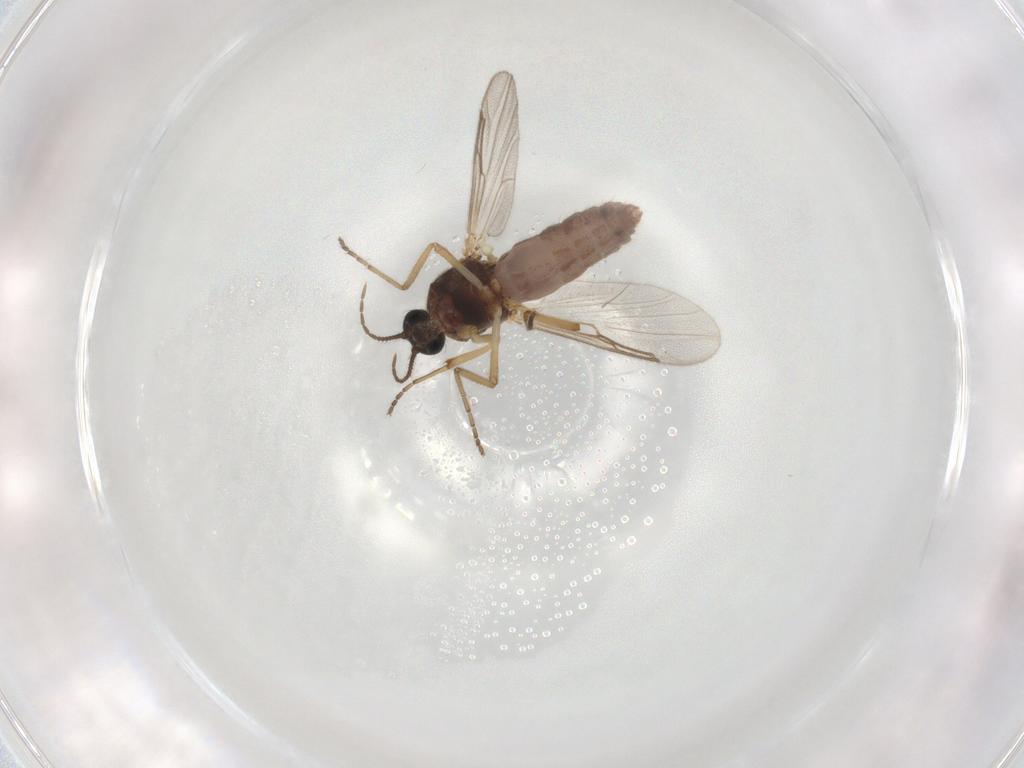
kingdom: Animalia
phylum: Arthropoda
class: Insecta
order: Diptera
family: Ceratopogonidae
